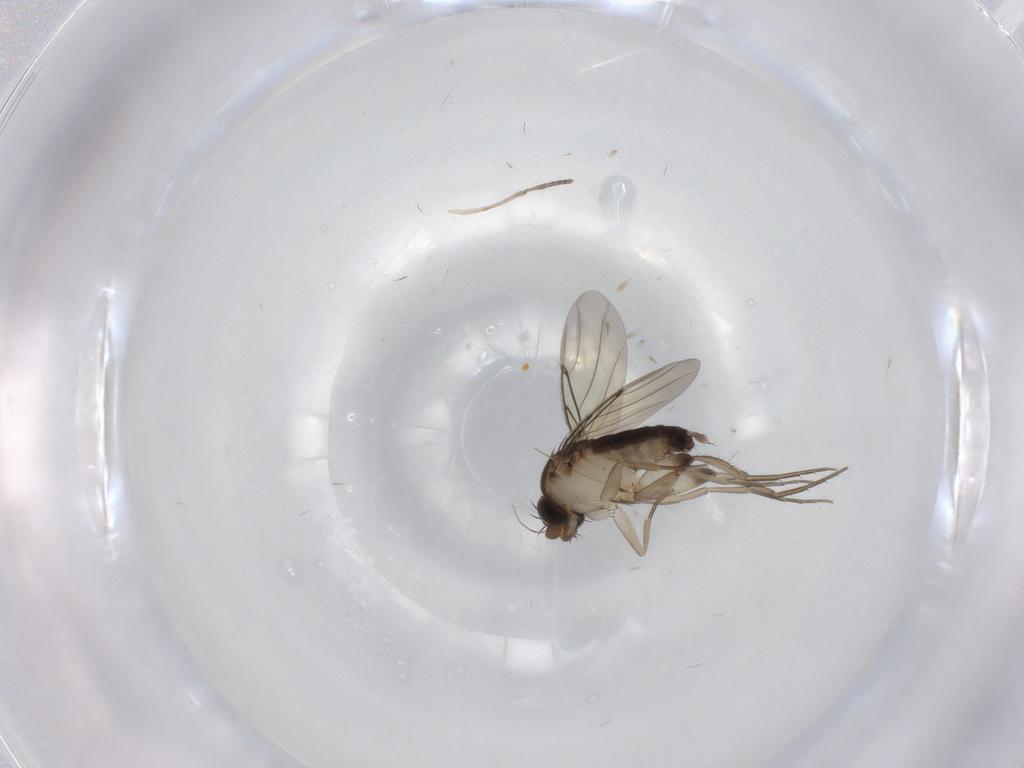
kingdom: Animalia
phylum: Arthropoda
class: Insecta
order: Diptera
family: Phoridae
